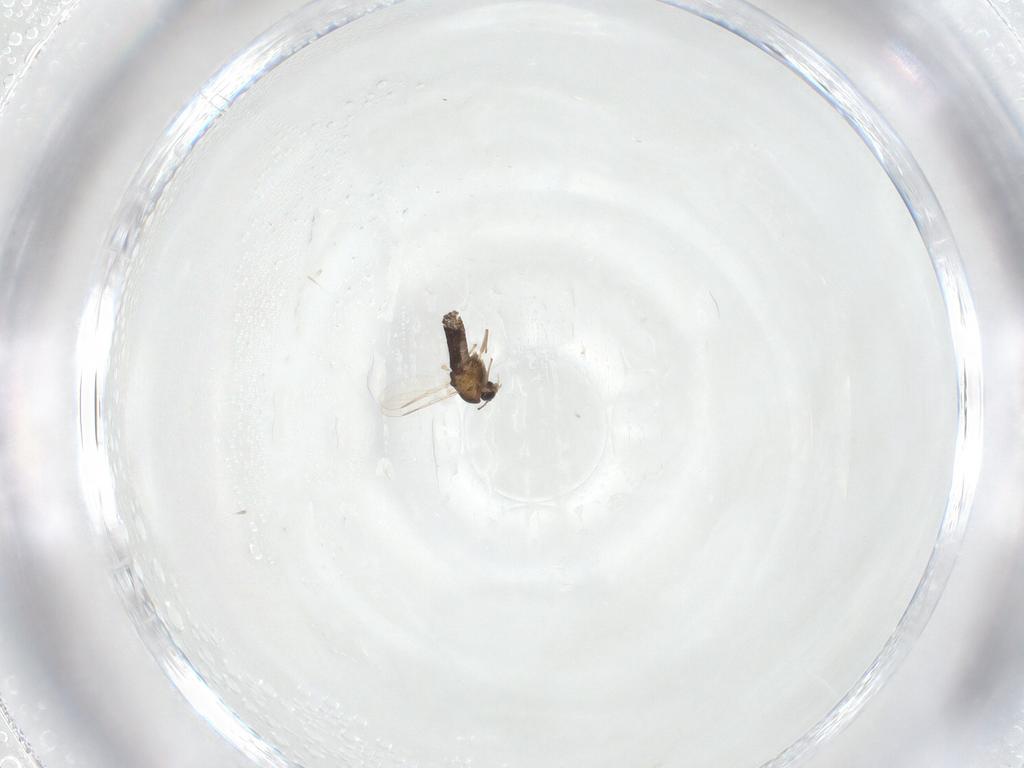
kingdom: Animalia
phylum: Arthropoda
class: Insecta
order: Diptera
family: Chironomidae
